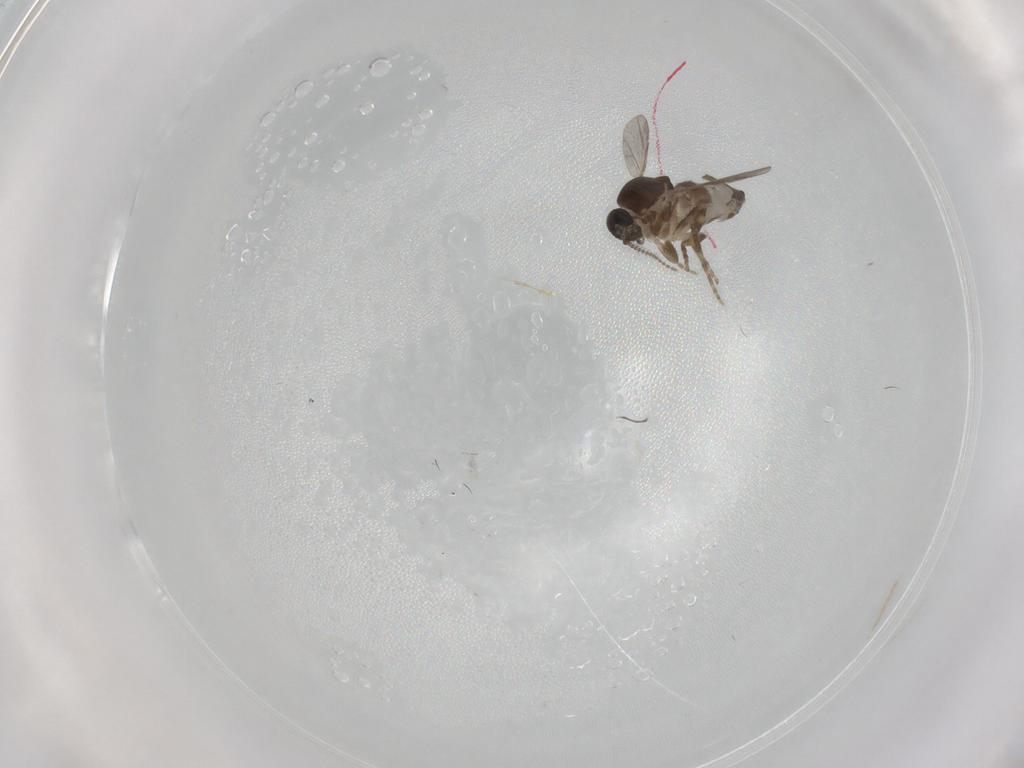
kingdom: Animalia
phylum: Arthropoda
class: Insecta
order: Diptera
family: Ceratopogonidae
